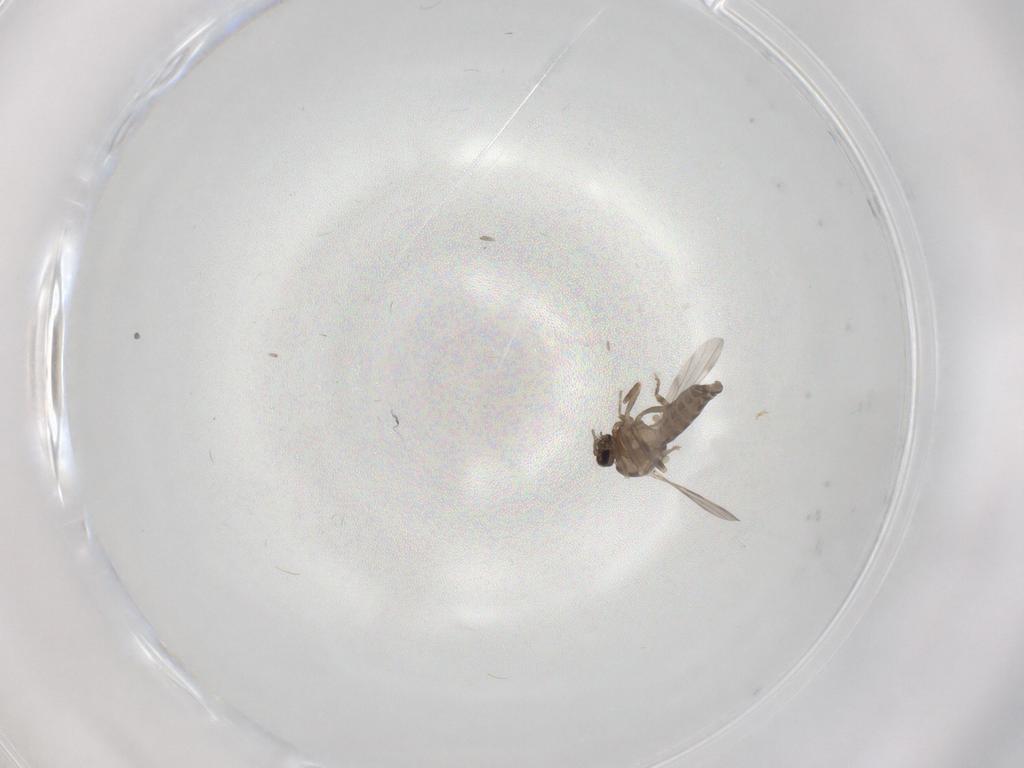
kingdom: Animalia
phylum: Arthropoda
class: Insecta
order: Diptera
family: Ceratopogonidae
